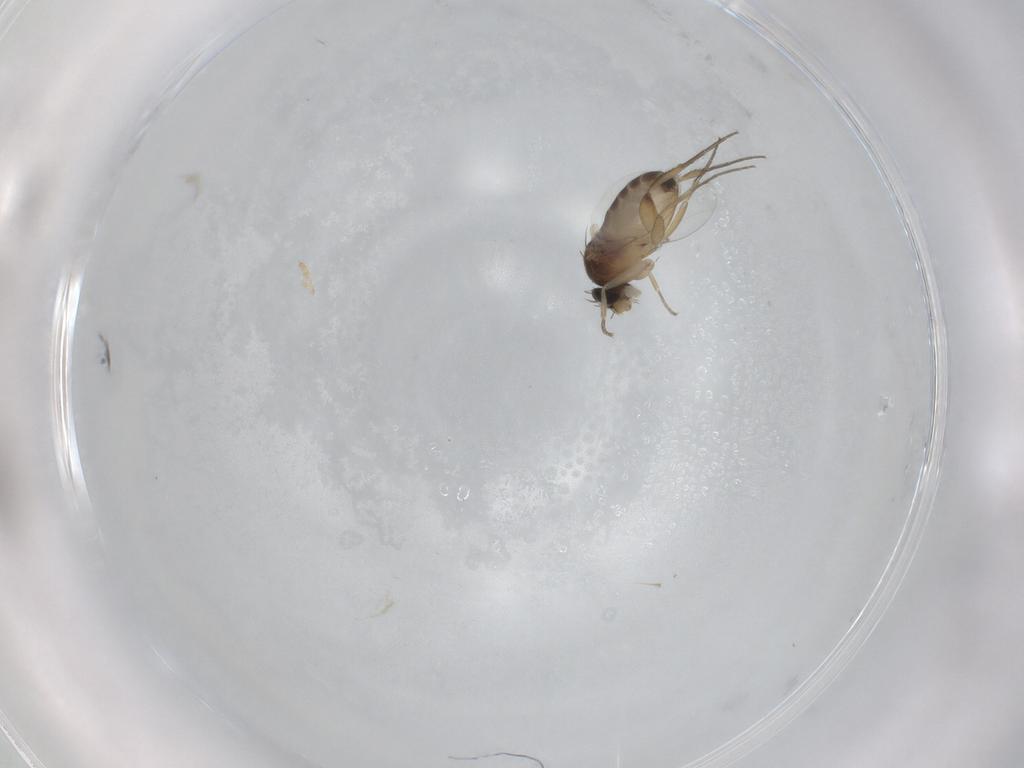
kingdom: Animalia
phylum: Arthropoda
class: Insecta
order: Diptera
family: Phoridae
